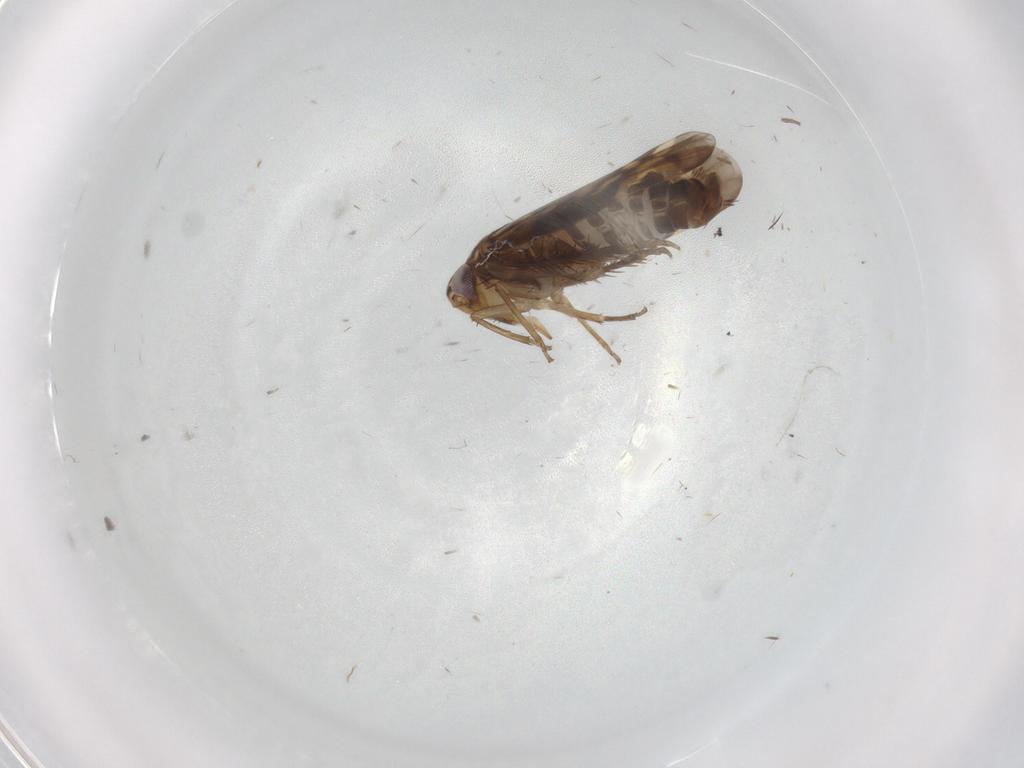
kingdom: Animalia
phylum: Arthropoda
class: Insecta
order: Hemiptera
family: Cicadellidae
